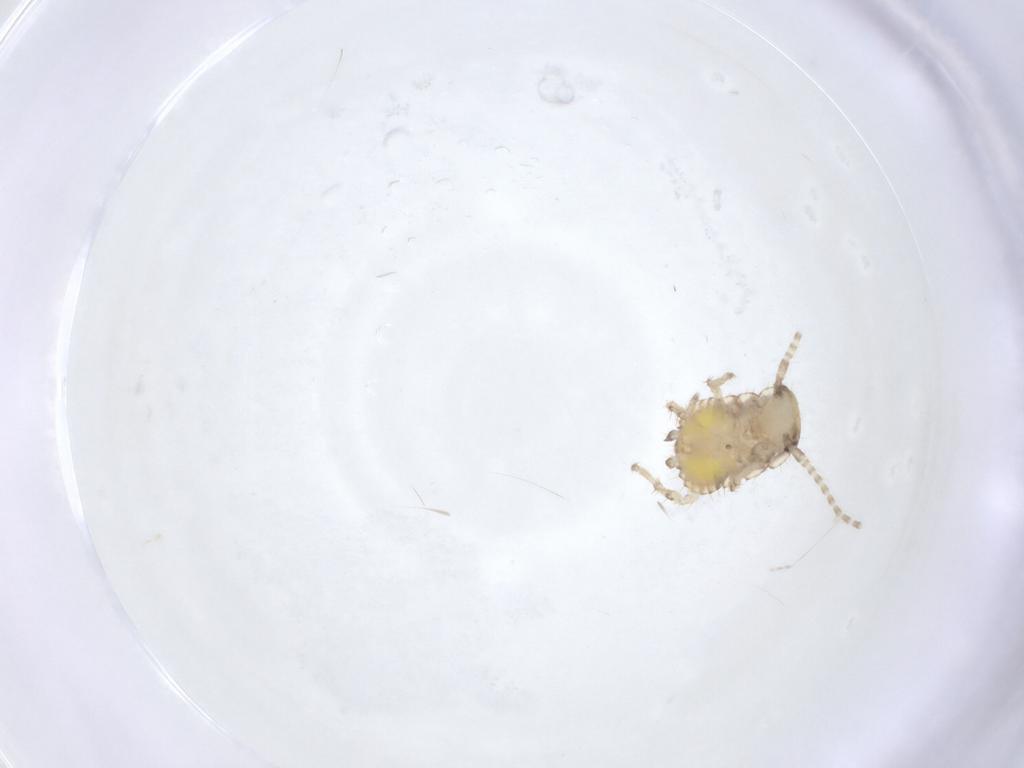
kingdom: Animalia
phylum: Arthropoda
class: Insecta
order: Blattodea
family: Ectobiidae
